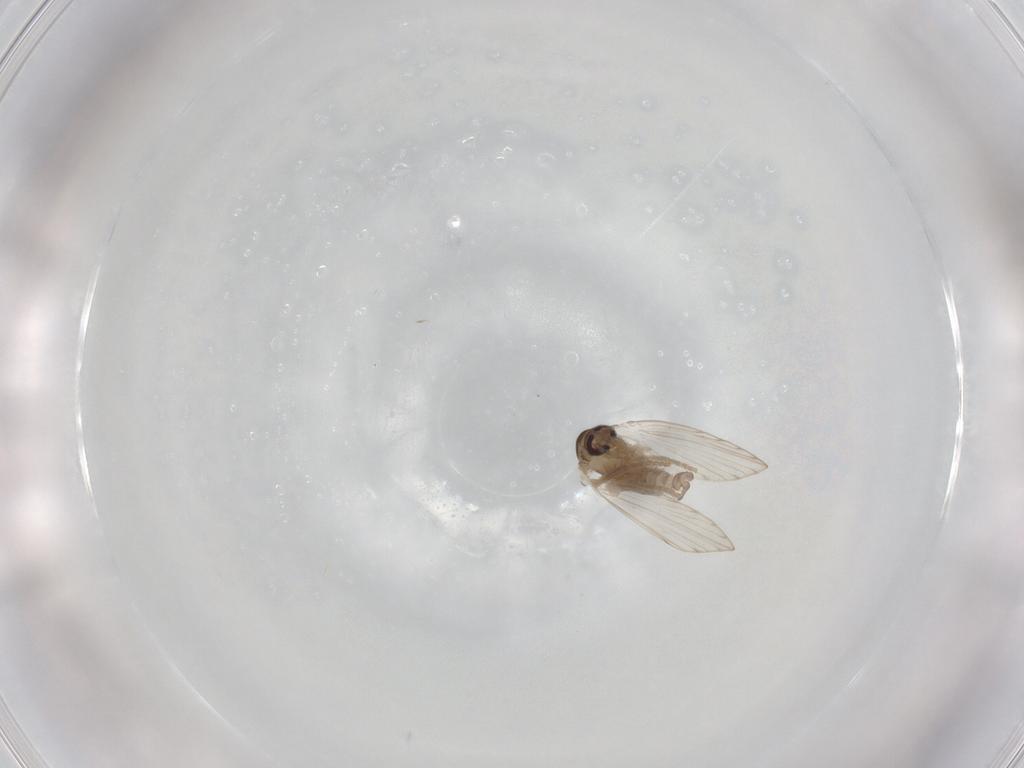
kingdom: Animalia
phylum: Arthropoda
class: Insecta
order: Diptera
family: Psychodidae
